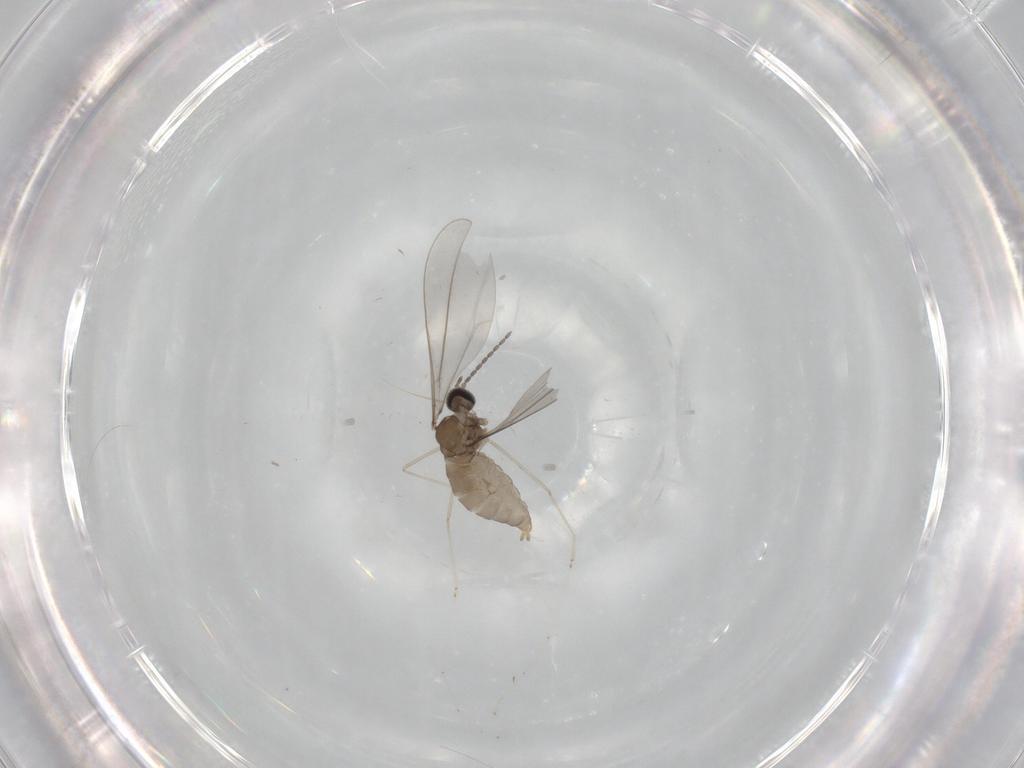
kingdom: Animalia
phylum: Arthropoda
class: Insecta
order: Diptera
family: Cecidomyiidae
